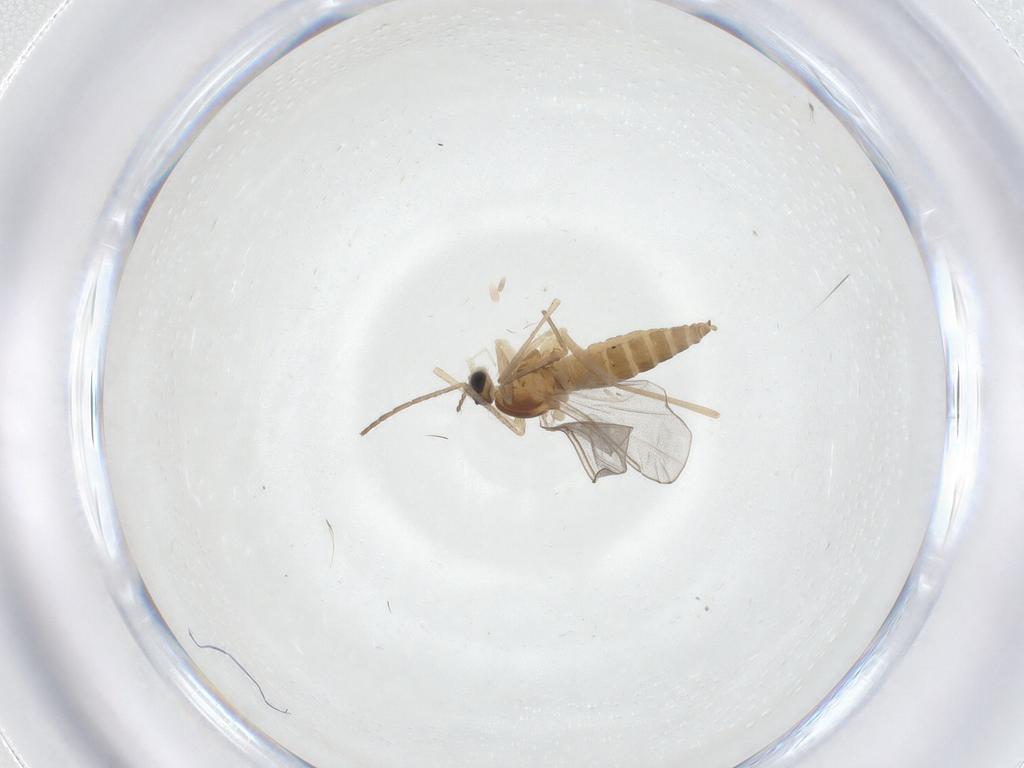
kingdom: Animalia
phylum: Arthropoda
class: Insecta
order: Diptera
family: Cecidomyiidae
